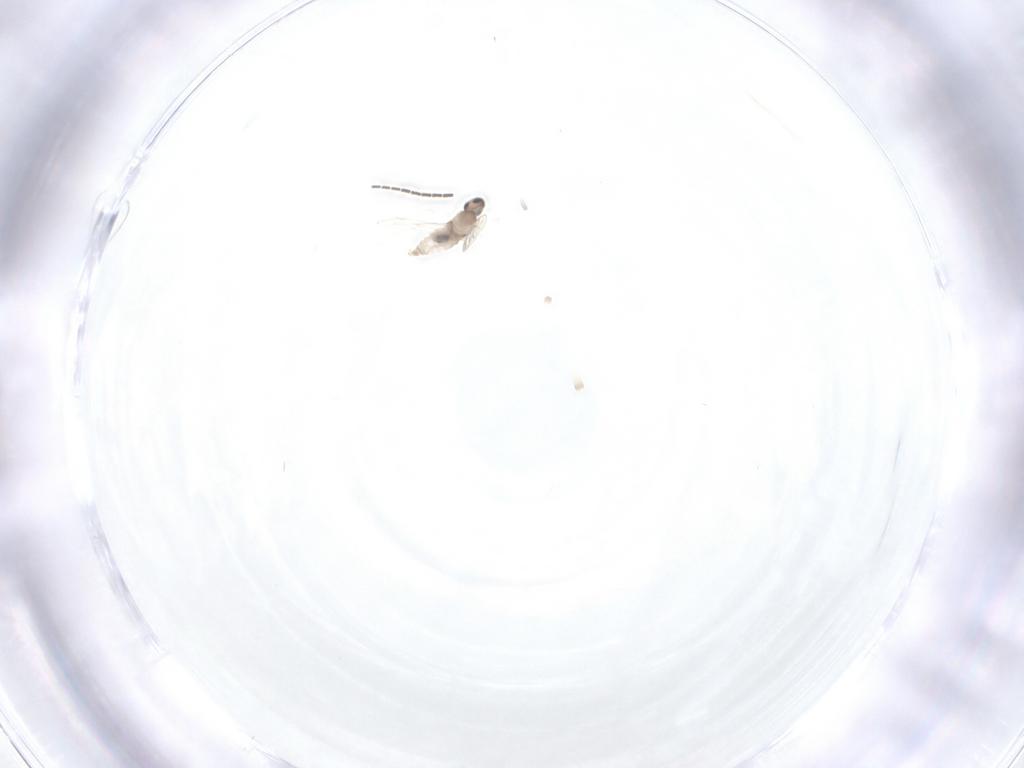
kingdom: Animalia
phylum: Arthropoda
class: Insecta
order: Diptera
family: Cecidomyiidae
